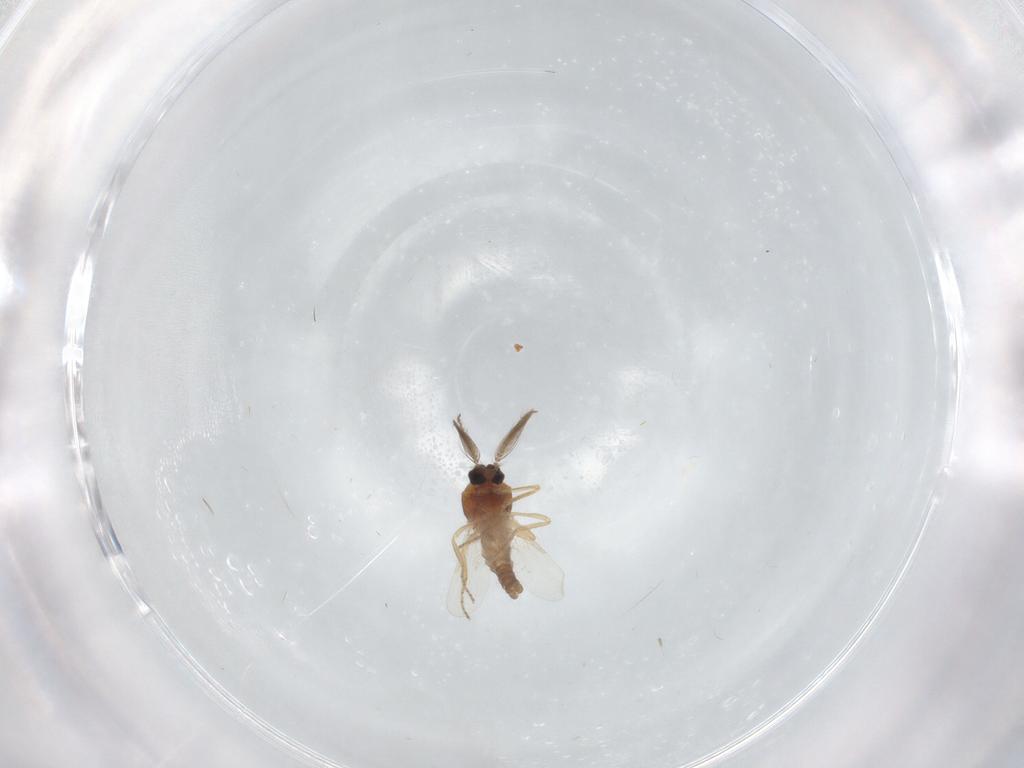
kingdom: Animalia
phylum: Arthropoda
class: Insecta
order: Diptera
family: Ceratopogonidae
